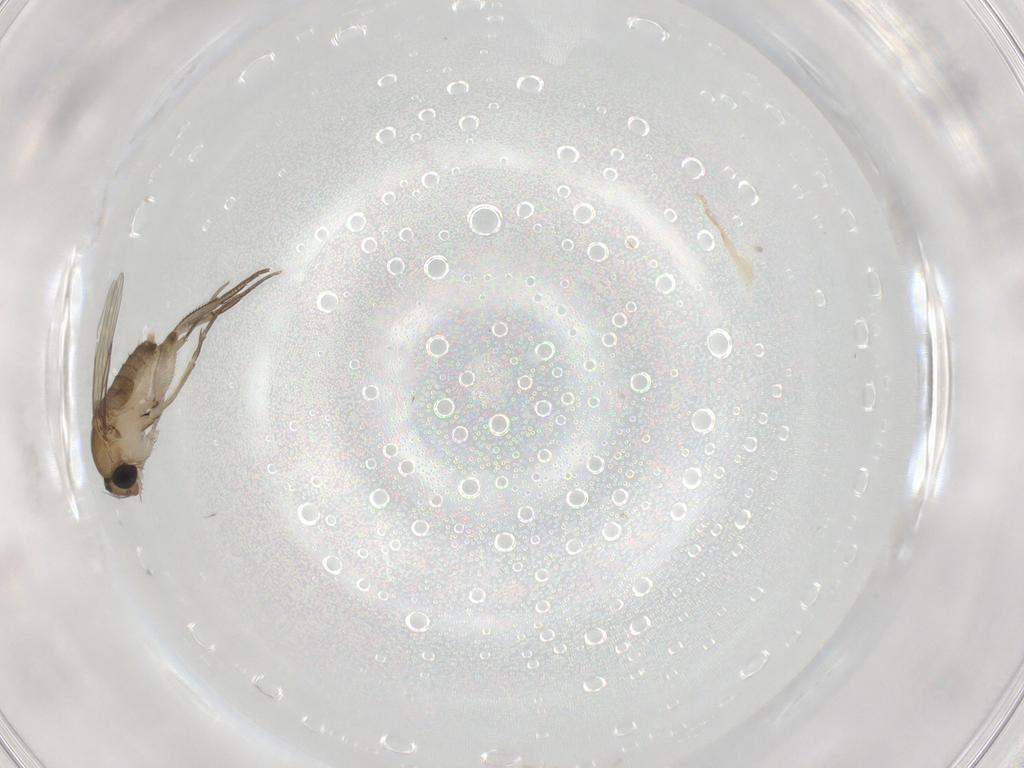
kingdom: Animalia
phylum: Arthropoda
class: Insecta
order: Diptera
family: Phoridae
